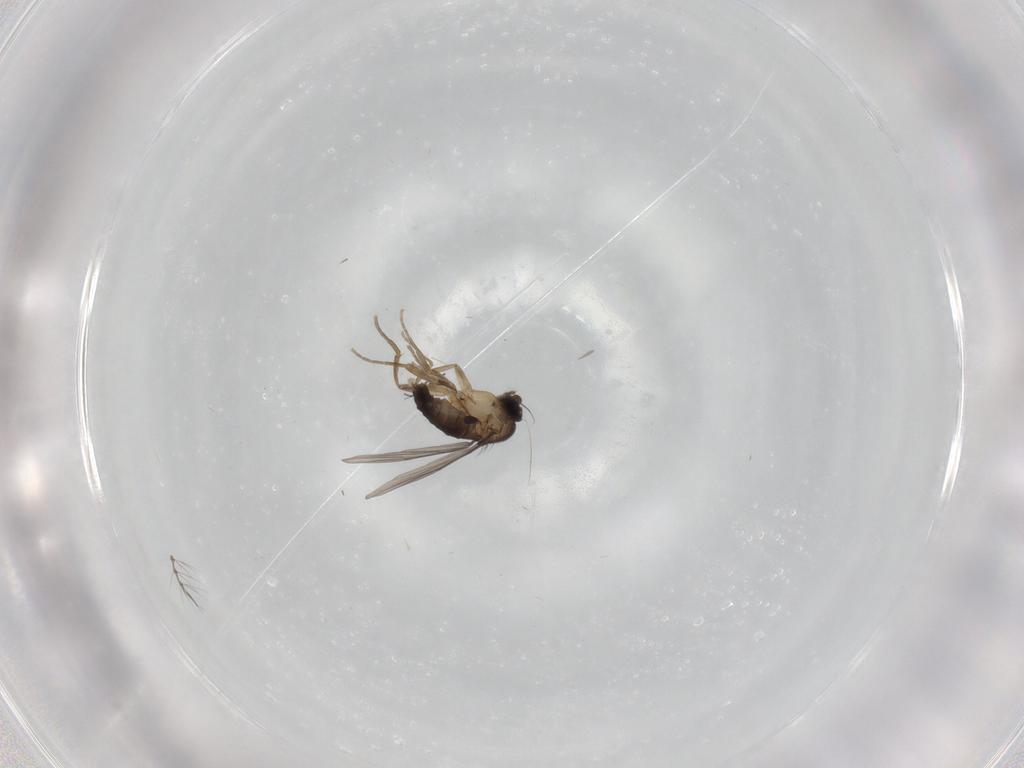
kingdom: Animalia
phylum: Arthropoda
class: Insecta
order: Diptera
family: Phoridae
